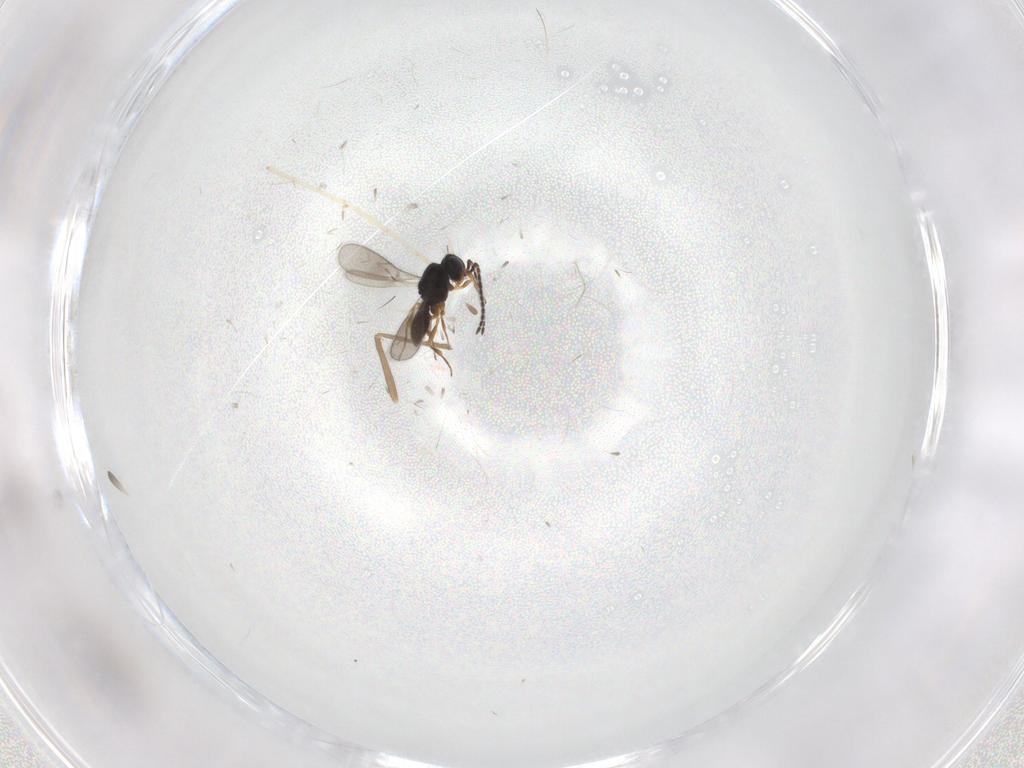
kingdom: Animalia
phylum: Arthropoda
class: Insecta
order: Hymenoptera
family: Scelionidae
